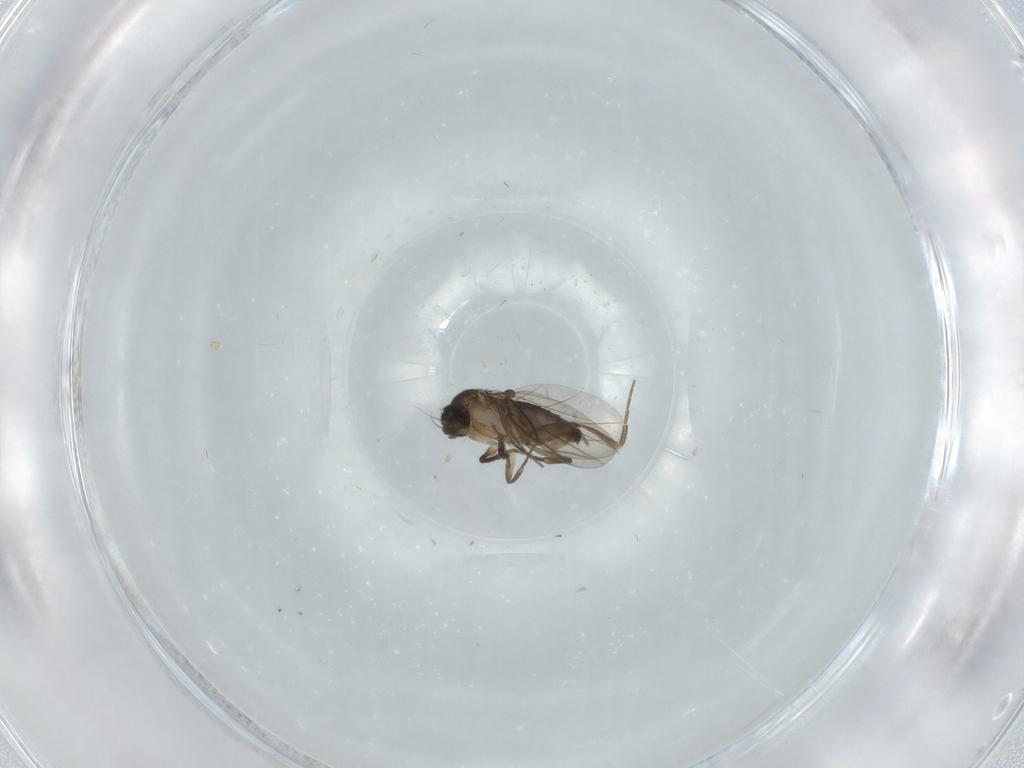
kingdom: Animalia
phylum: Arthropoda
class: Insecta
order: Diptera
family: Phoridae
